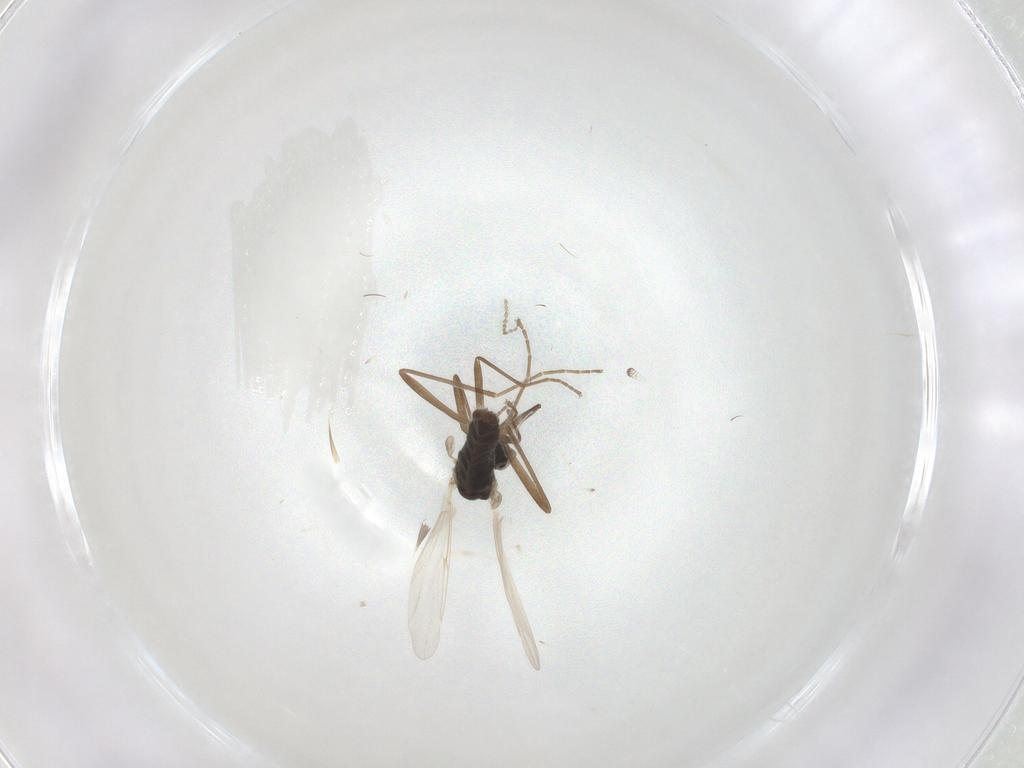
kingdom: Animalia
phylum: Arthropoda
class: Insecta
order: Diptera
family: Sciaridae
